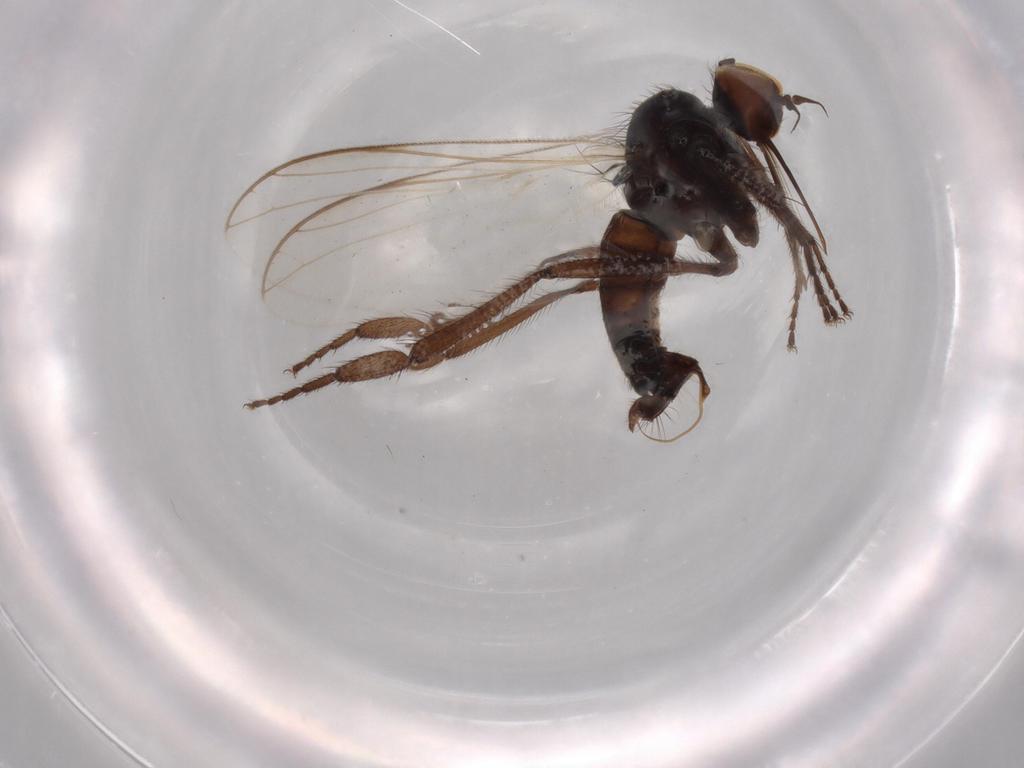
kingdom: Animalia
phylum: Arthropoda
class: Insecta
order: Diptera
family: Empididae
